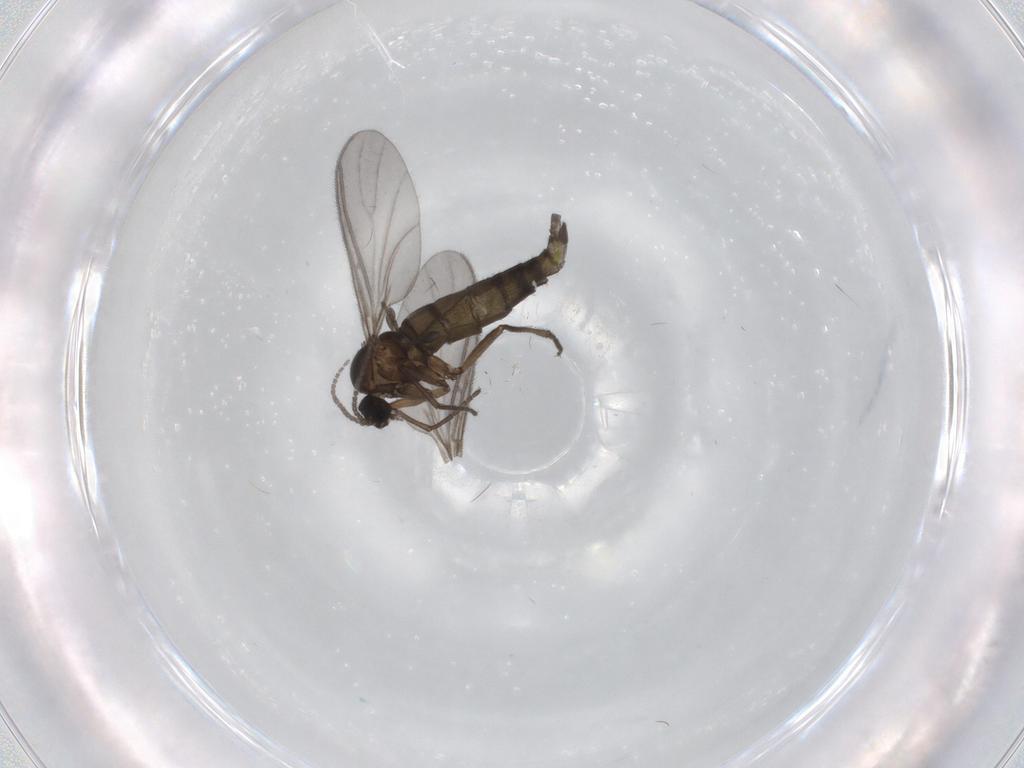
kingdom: Animalia
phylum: Arthropoda
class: Insecta
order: Diptera
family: Sciaridae
